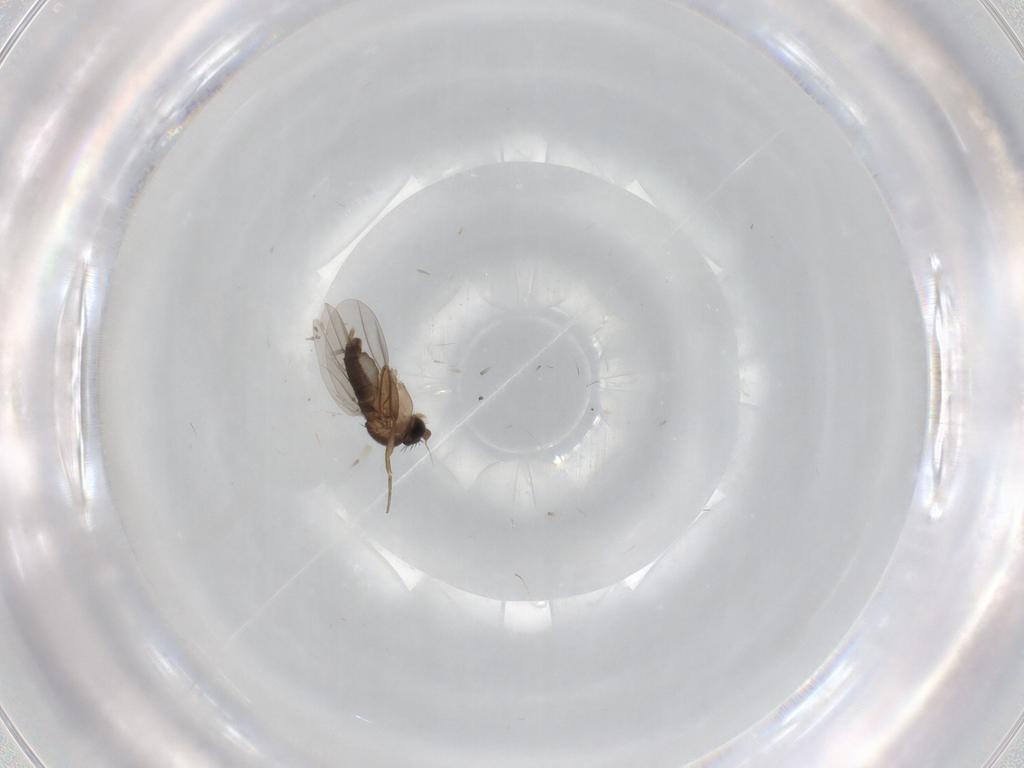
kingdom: Animalia
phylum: Arthropoda
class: Insecta
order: Diptera
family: Phoridae
